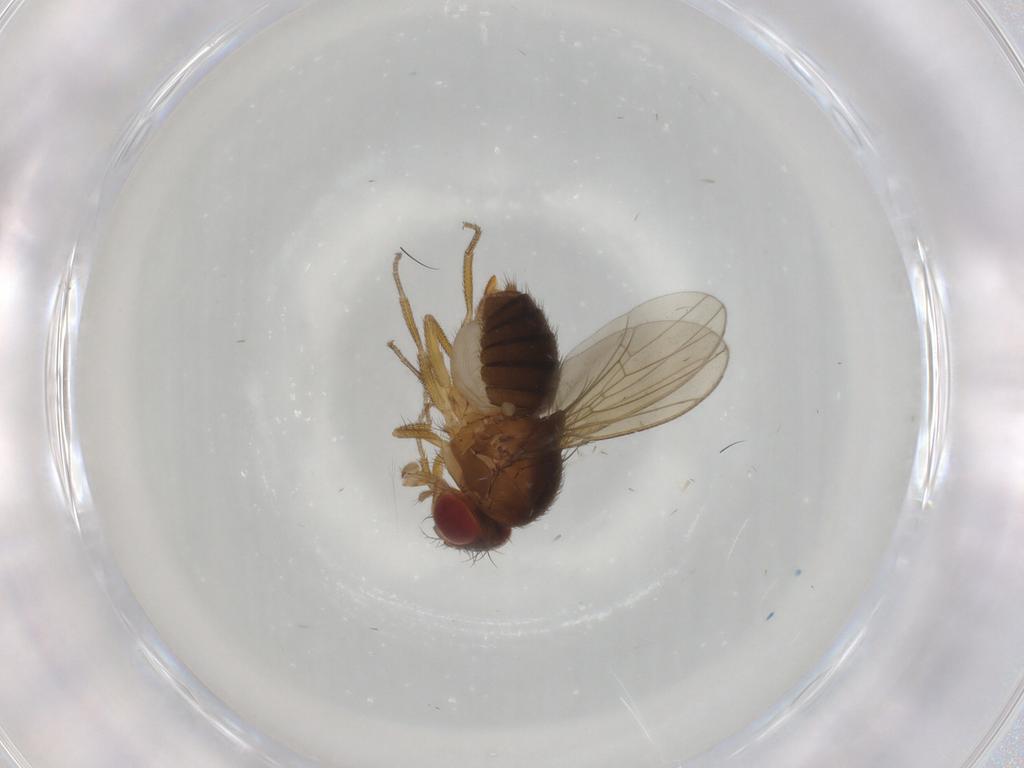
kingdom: Animalia
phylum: Arthropoda
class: Insecta
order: Diptera
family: Drosophilidae
